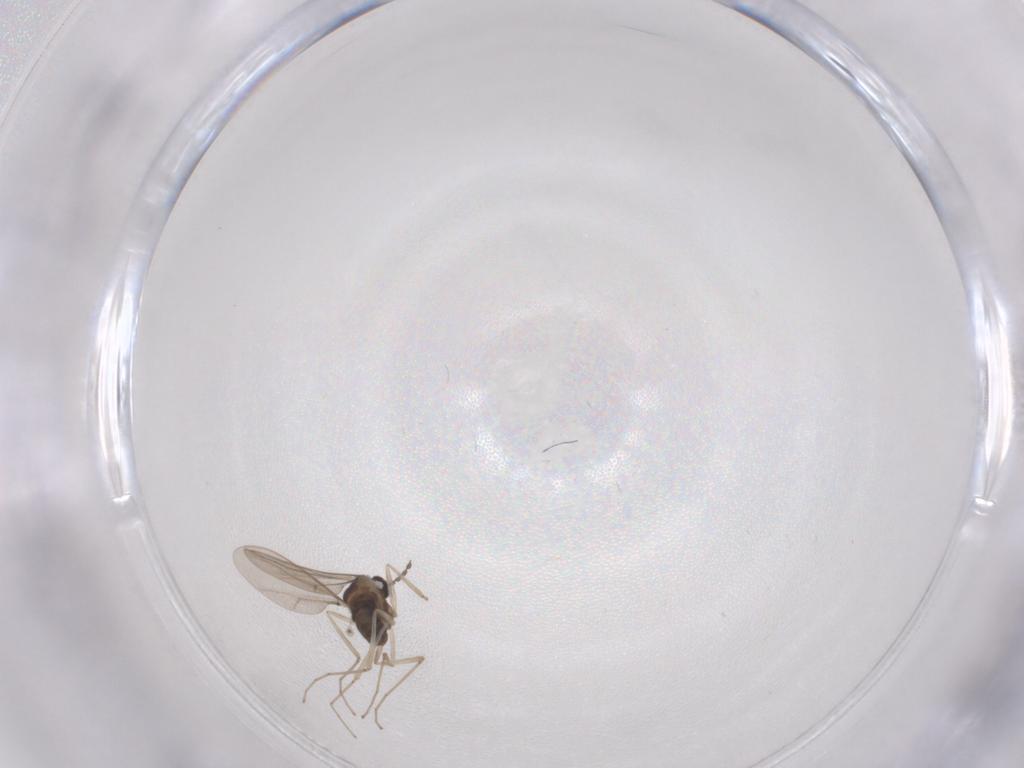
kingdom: Animalia
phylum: Arthropoda
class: Insecta
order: Diptera
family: Cecidomyiidae
